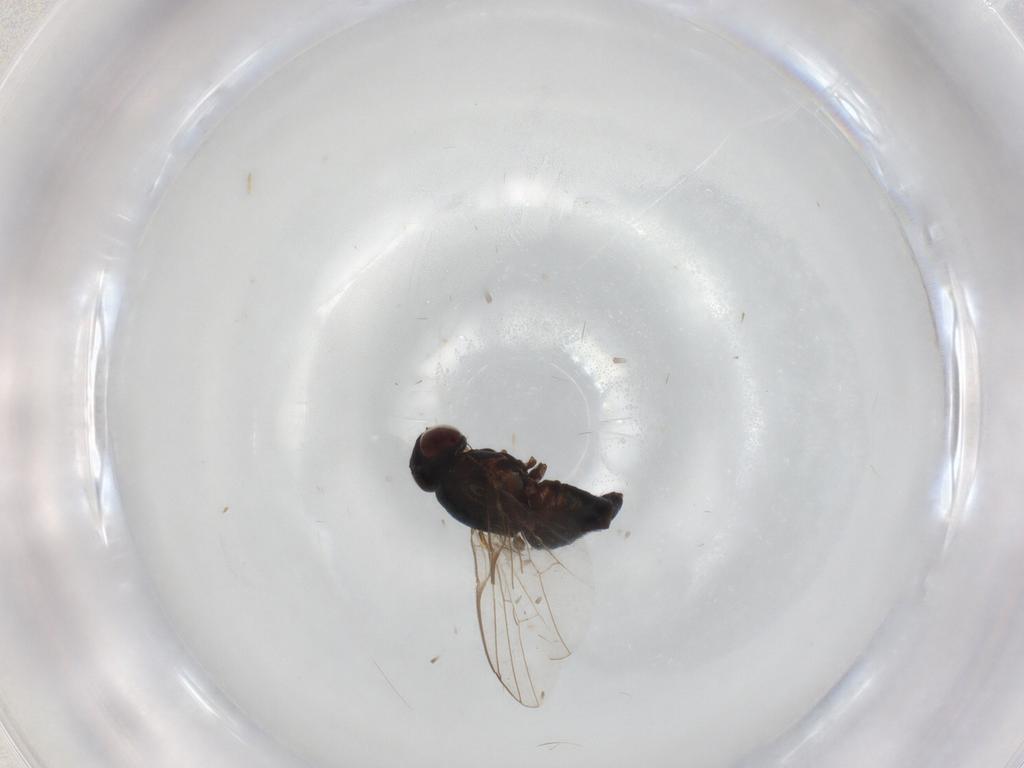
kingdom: Animalia
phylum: Arthropoda
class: Insecta
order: Diptera
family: Agromyzidae
